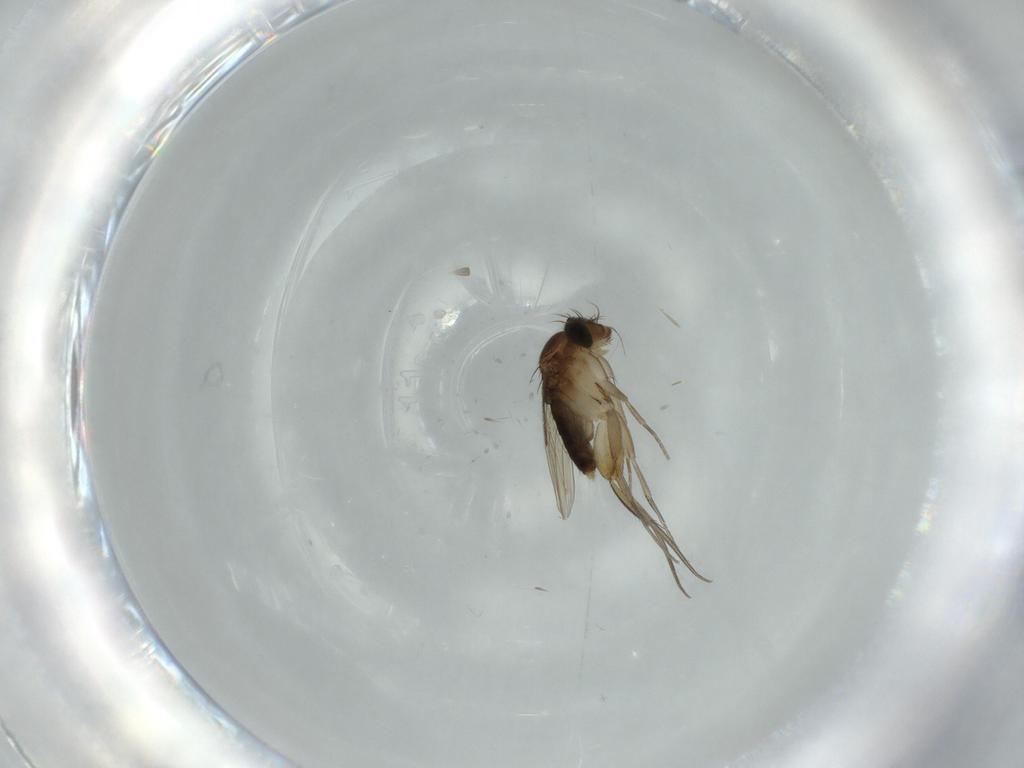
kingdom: Animalia
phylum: Arthropoda
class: Insecta
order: Diptera
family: Phoridae
